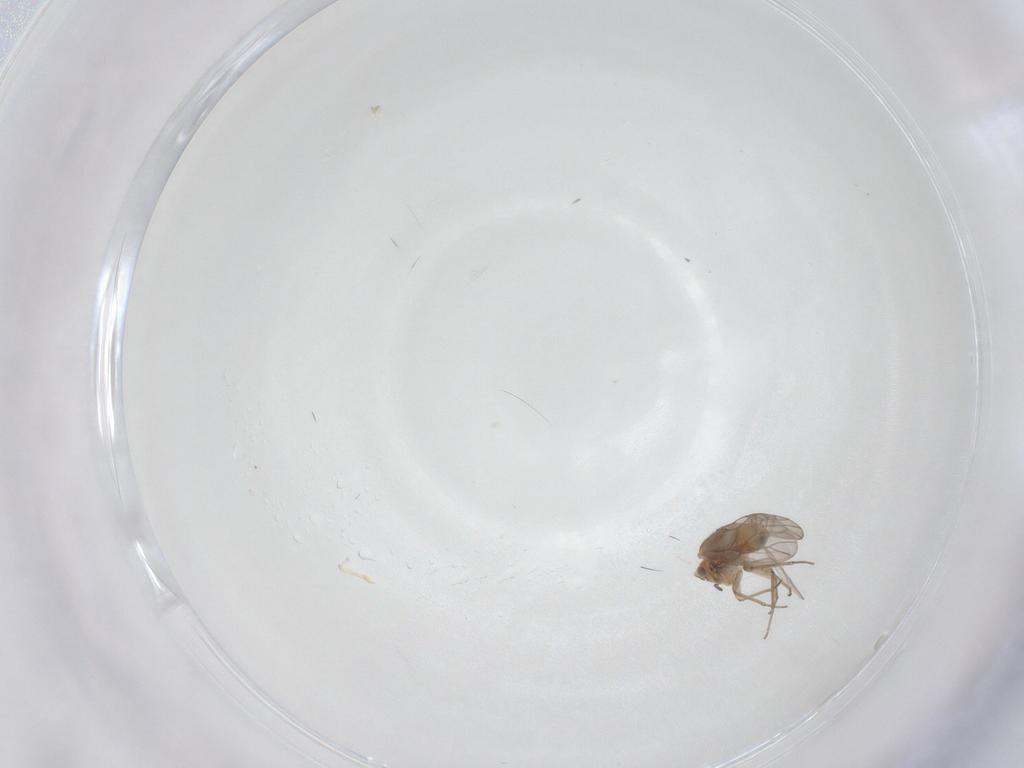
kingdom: Animalia
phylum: Arthropoda
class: Insecta
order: Psocodea
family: Peripsocidae
